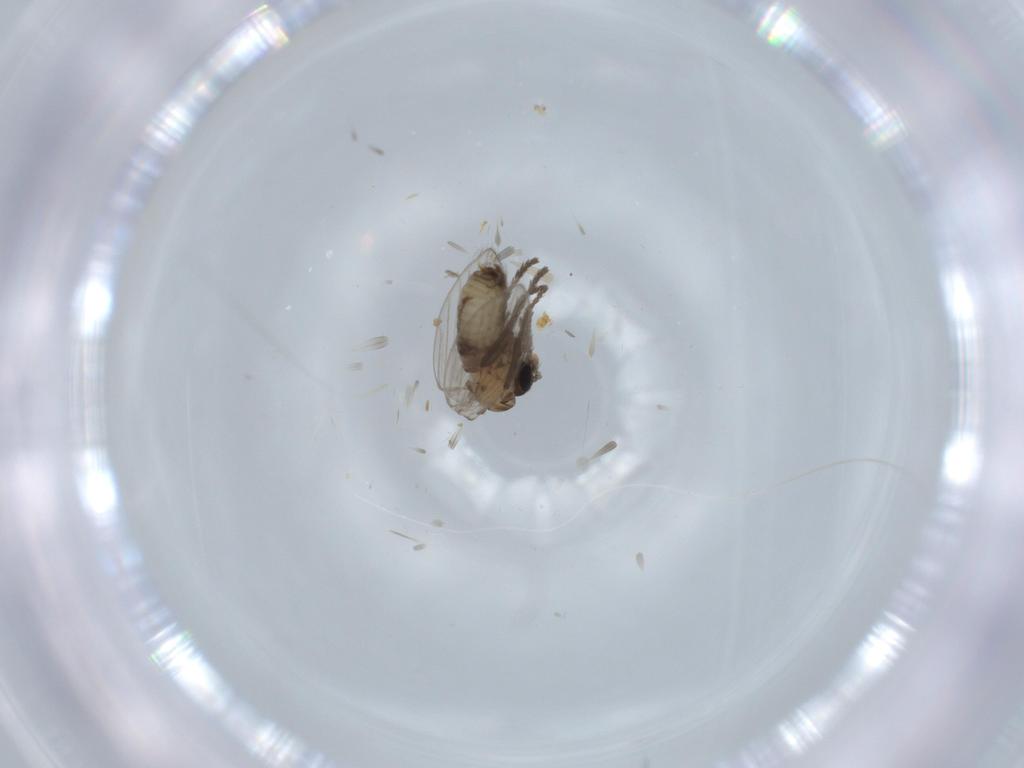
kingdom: Animalia
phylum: Arthropoda
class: Insecta
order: Diptera
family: Psychodidae
